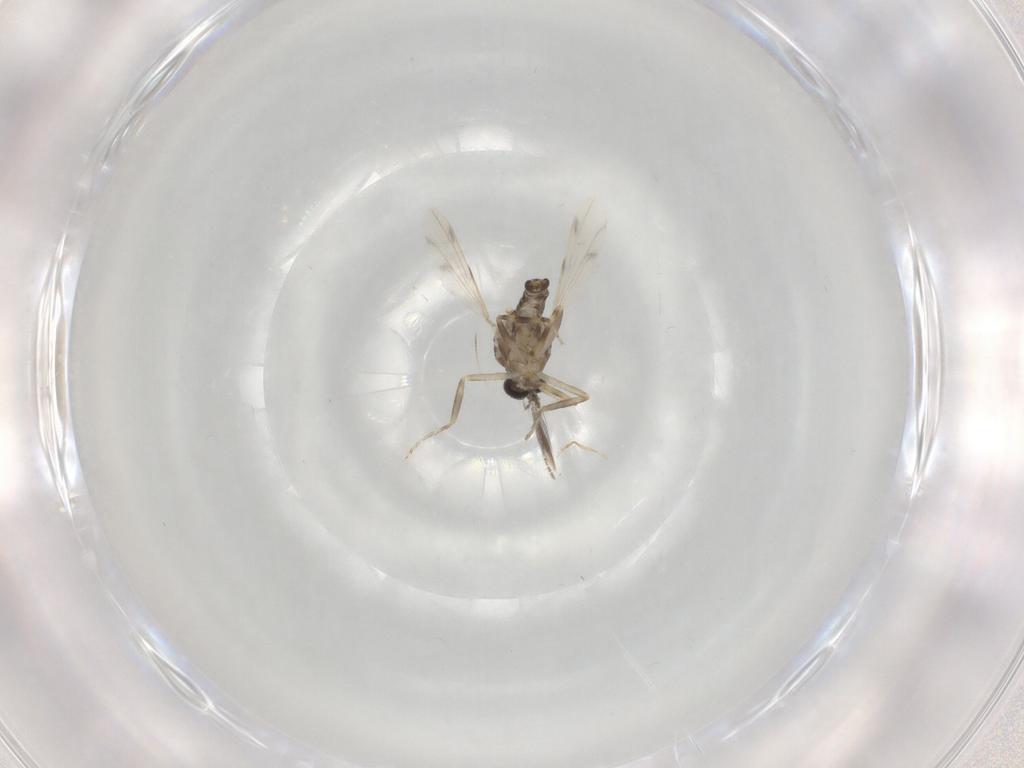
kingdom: Animalia
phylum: Arthropoda
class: Insecta
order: Diptera
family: Ceratopogonidae
